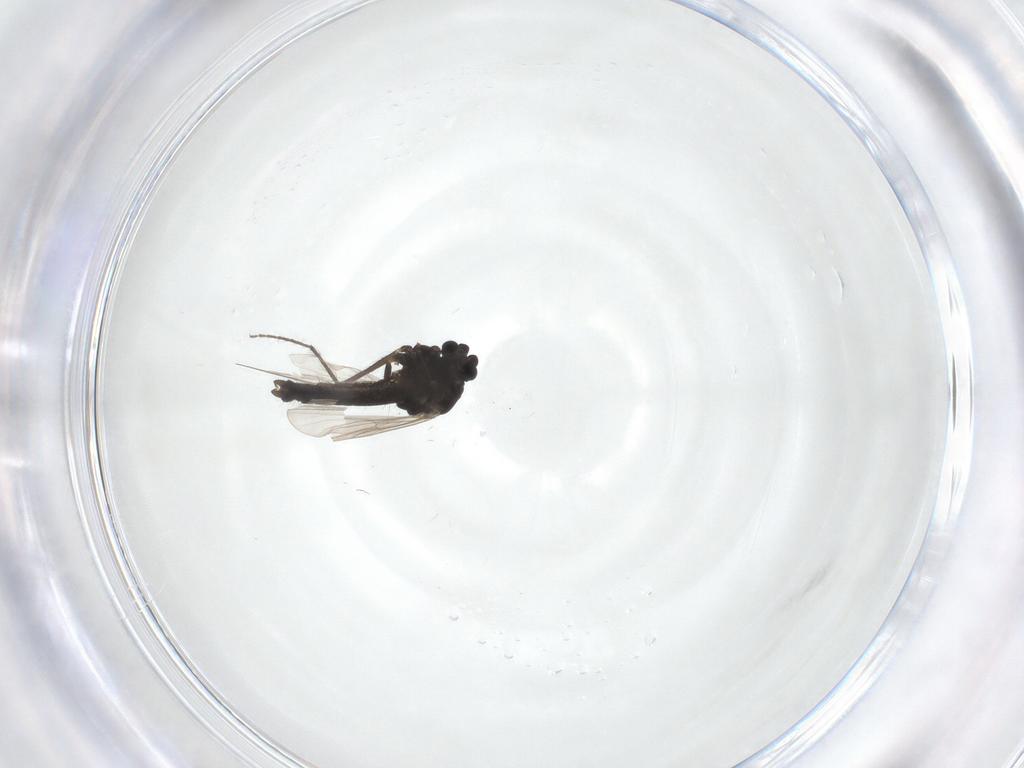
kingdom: Animalia
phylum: Arthropoda
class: Insecta
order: Diptera
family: Chironomidae
